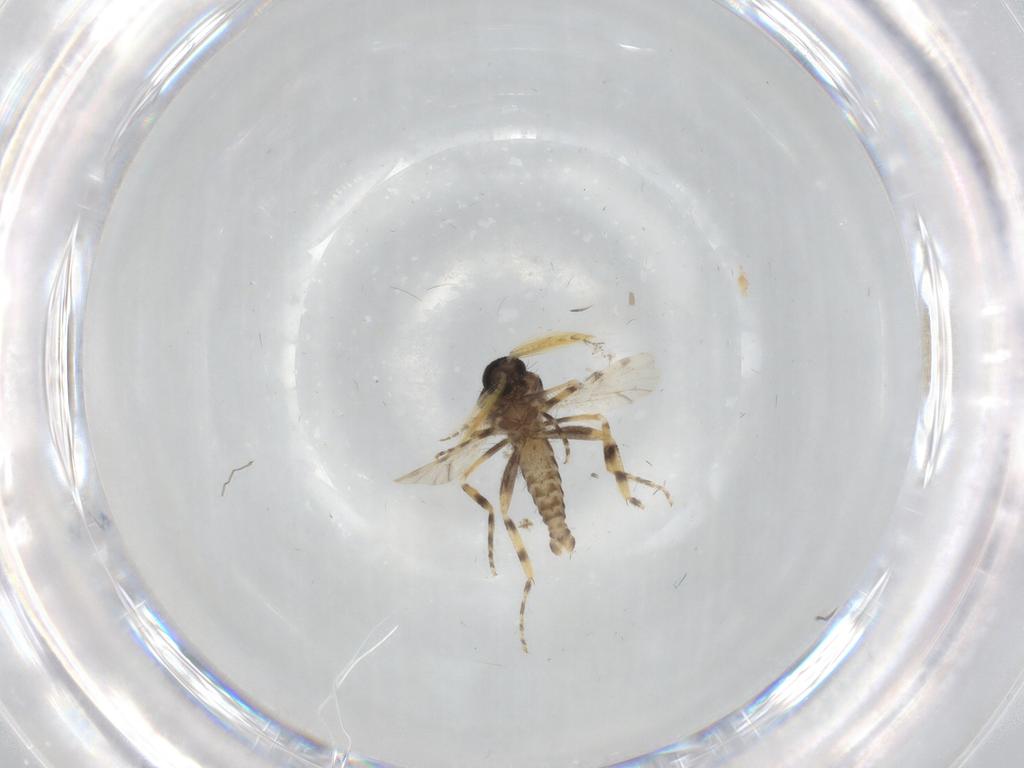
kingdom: Animalia
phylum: Arthropoda
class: Insecta
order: Diptera
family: Ceratopogonidae
